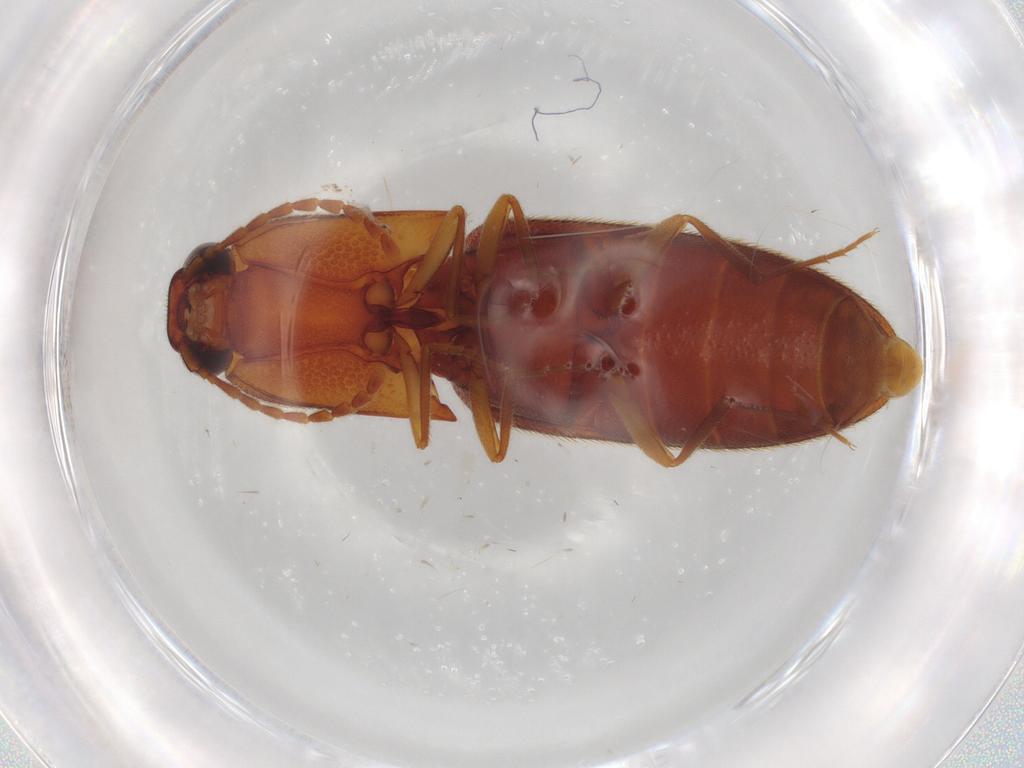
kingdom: Animalia
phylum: Arthropoda
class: Insecta
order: Coleoptera
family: Elateridae
